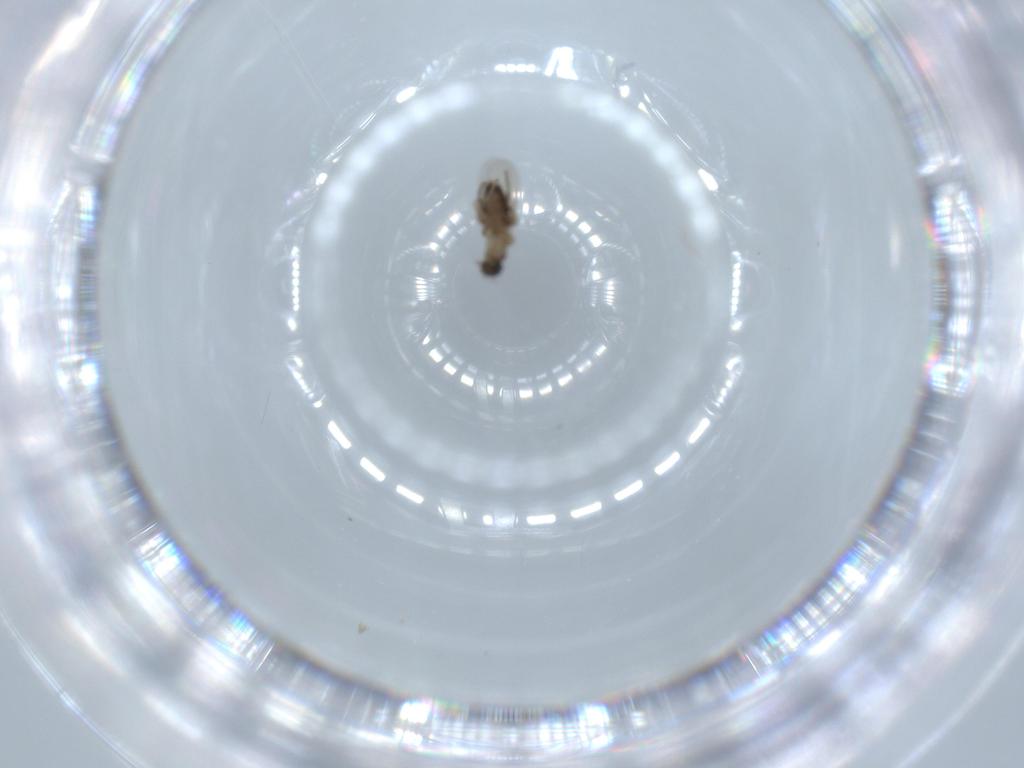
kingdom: Animalia
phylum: Arthropoda
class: Insecta
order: Diptera
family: Phoridae
